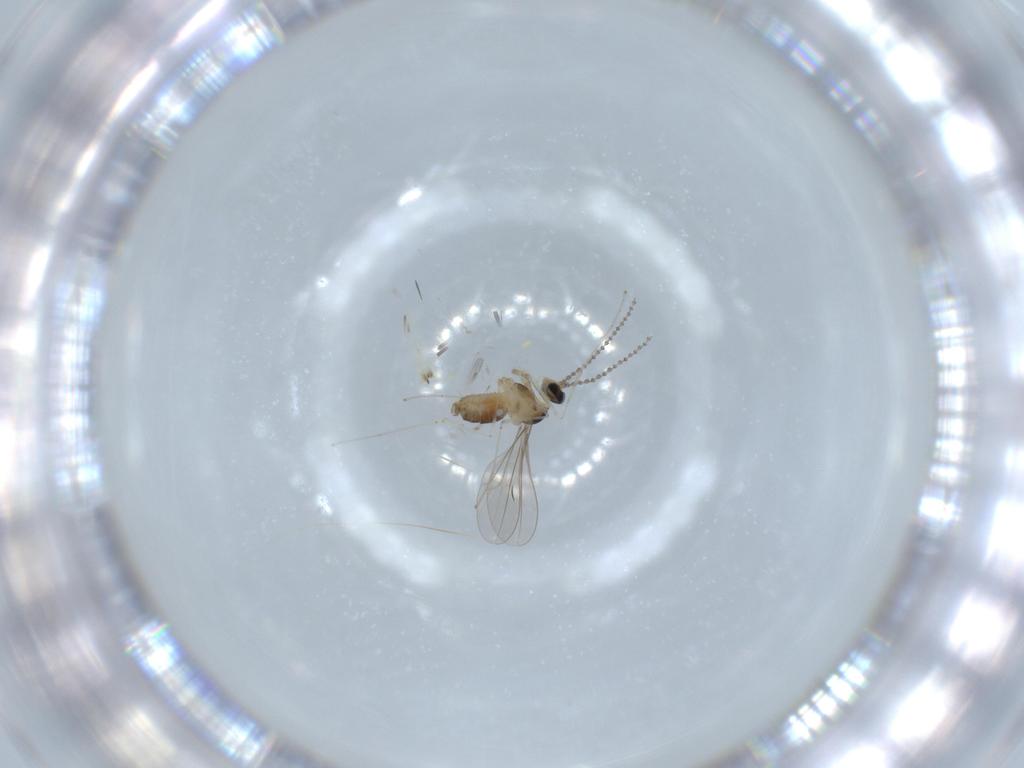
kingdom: Animalia
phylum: Arthropoda
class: Insecta
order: Diptera
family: Cecidomyiidae
